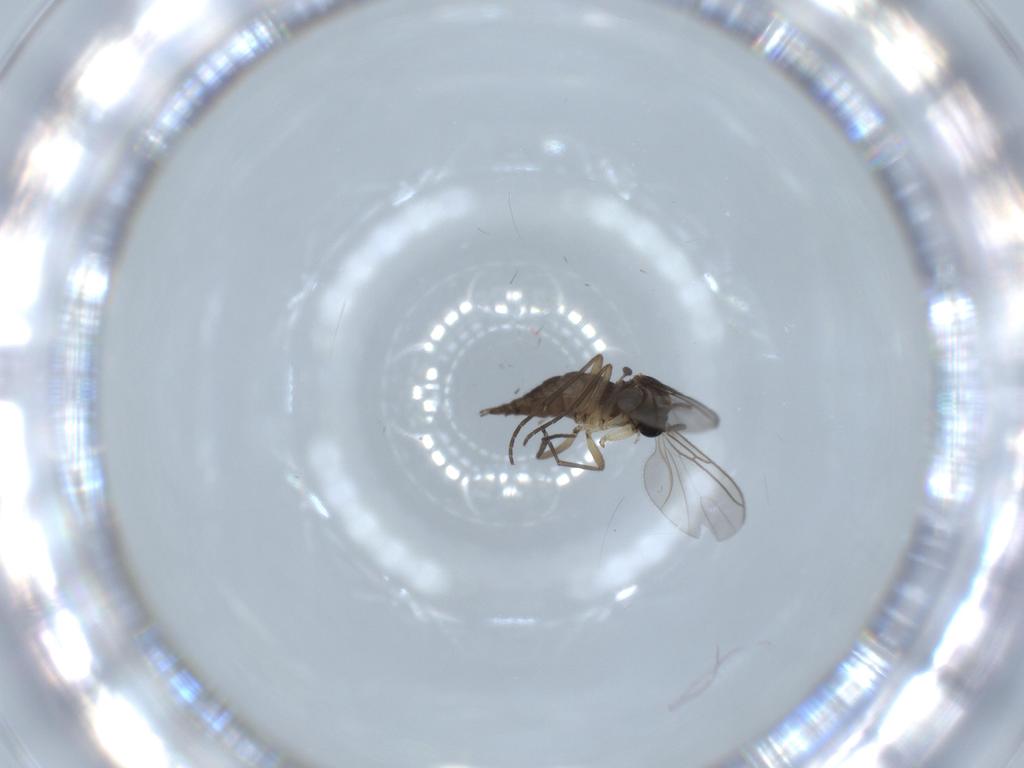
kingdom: Animalia
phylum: Arthropoda
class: Insecta
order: Diptera
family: Sciaridae
